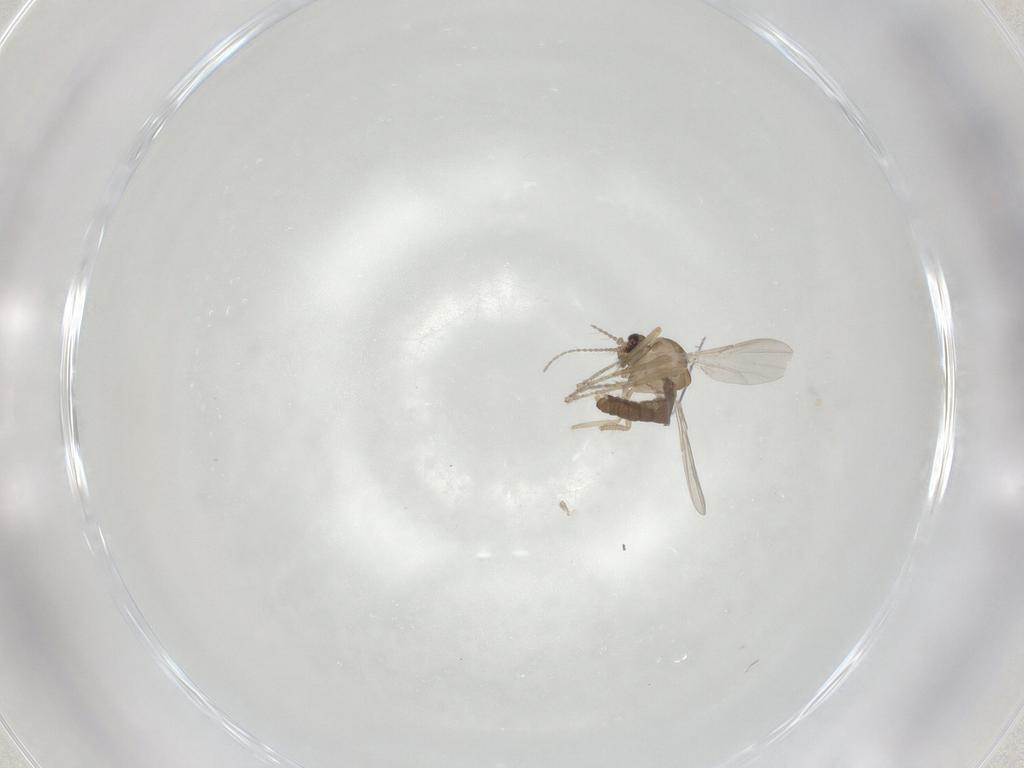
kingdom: Animalia
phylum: Arthropoda
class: Insecta
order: Diptera
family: Ceratopogonidae
